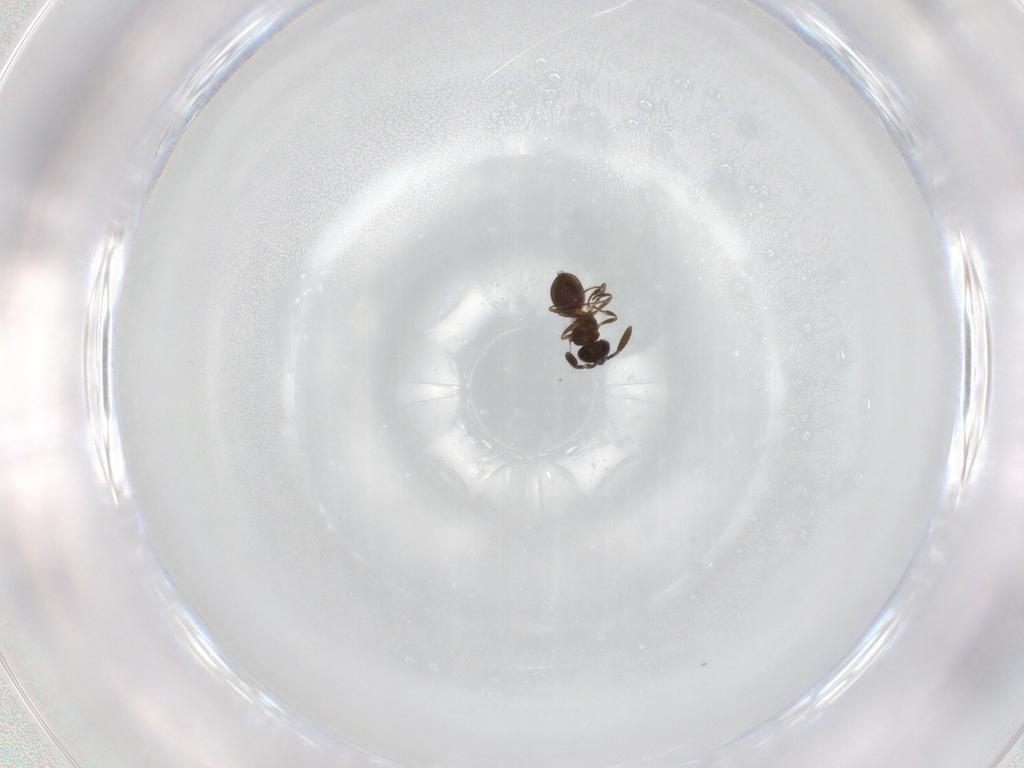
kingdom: Animalia
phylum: Arthropoda
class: Insecta
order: Hymenoptera
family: Scelionidae
